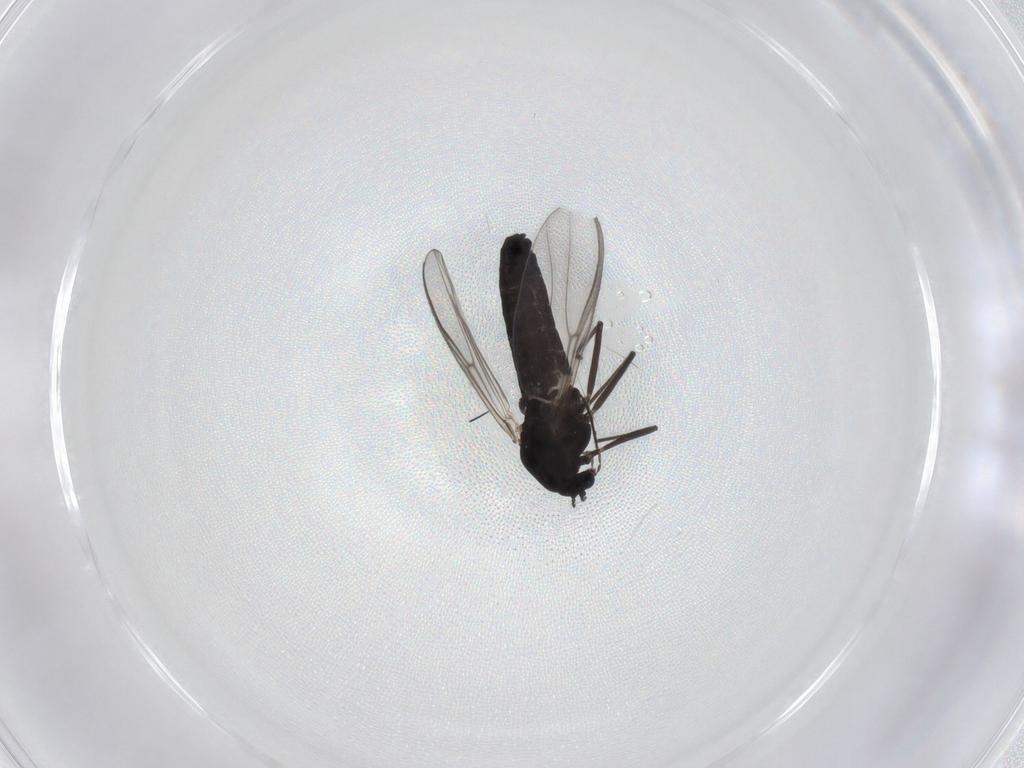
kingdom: Animalia
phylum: Arthropoda
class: Insecta
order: Diptera
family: Chironomidae
